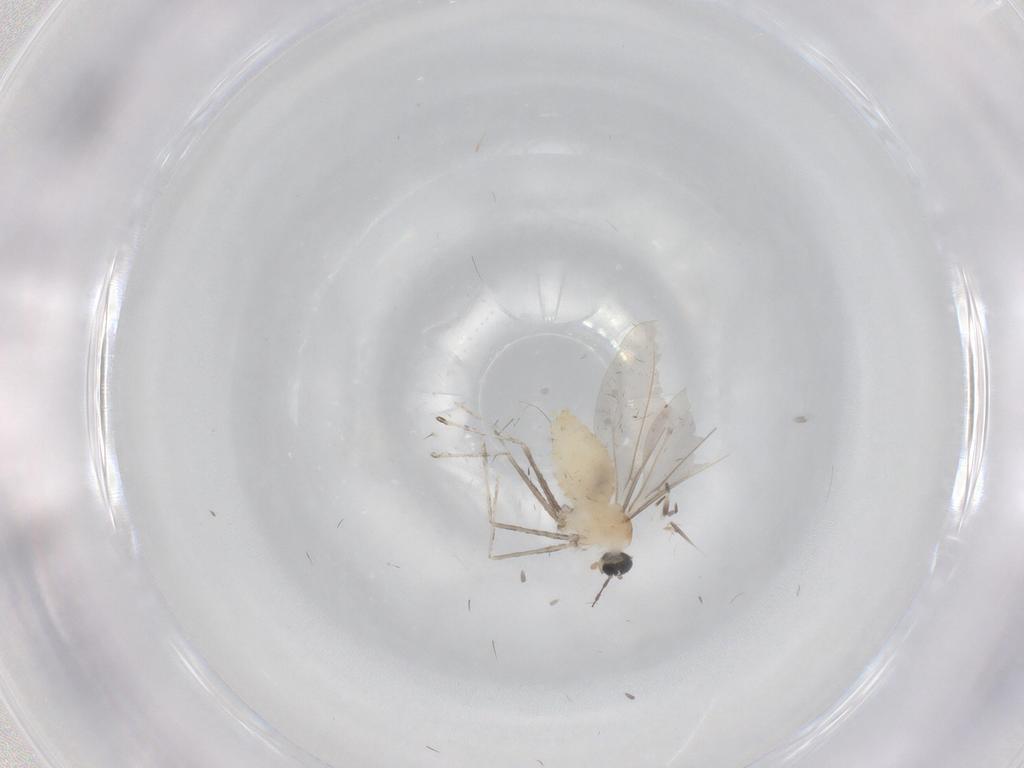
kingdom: Animalia
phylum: Arthropoda
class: Insecta
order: Diptera
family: Cecidomyiidae
